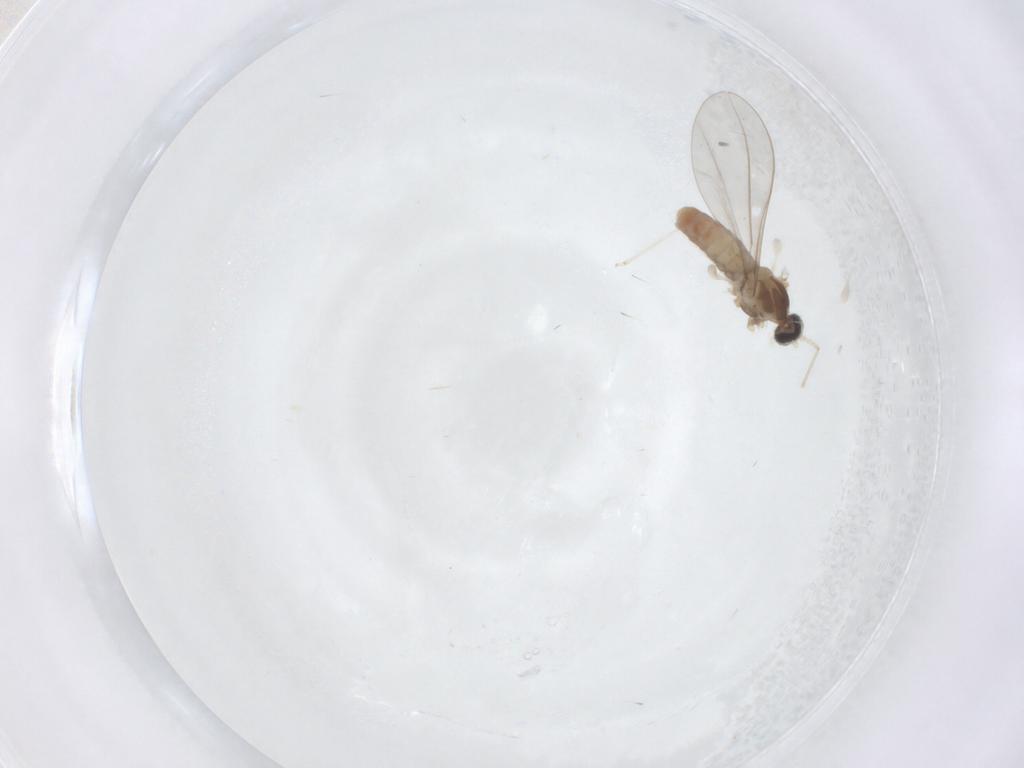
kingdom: Animalia
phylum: Arthropoda
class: Insecta
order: Diptera
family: Cecidomyiidae
